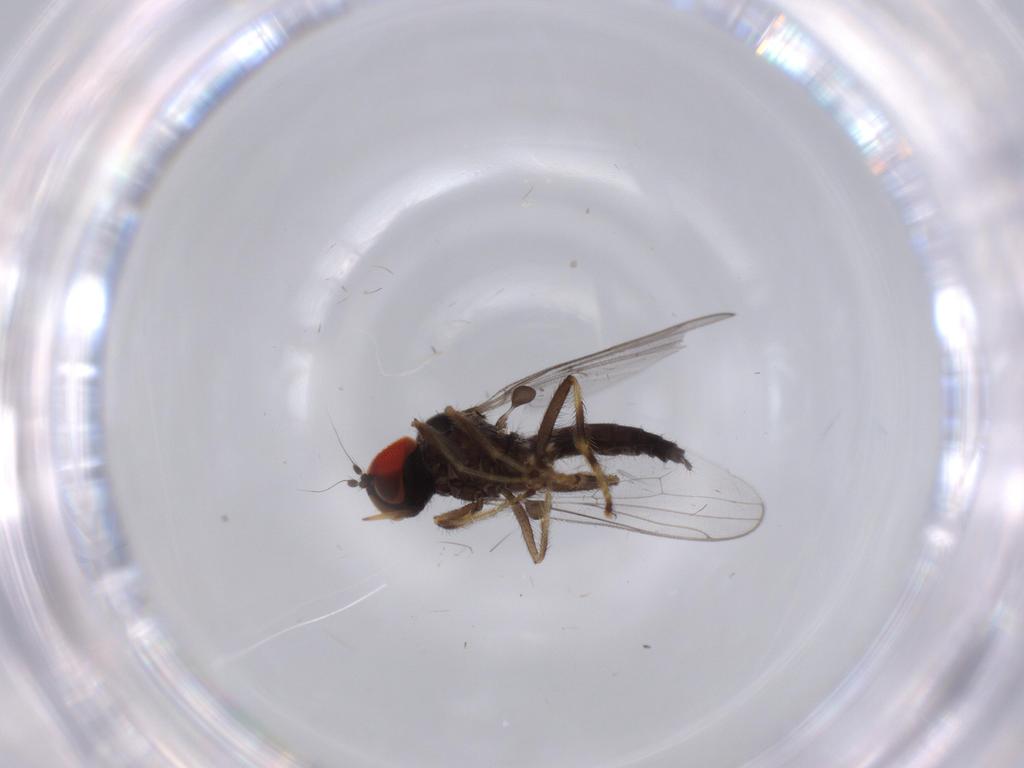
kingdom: Animalia
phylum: Arthropoda
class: Insecta
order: Diptera
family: Hybotidae
